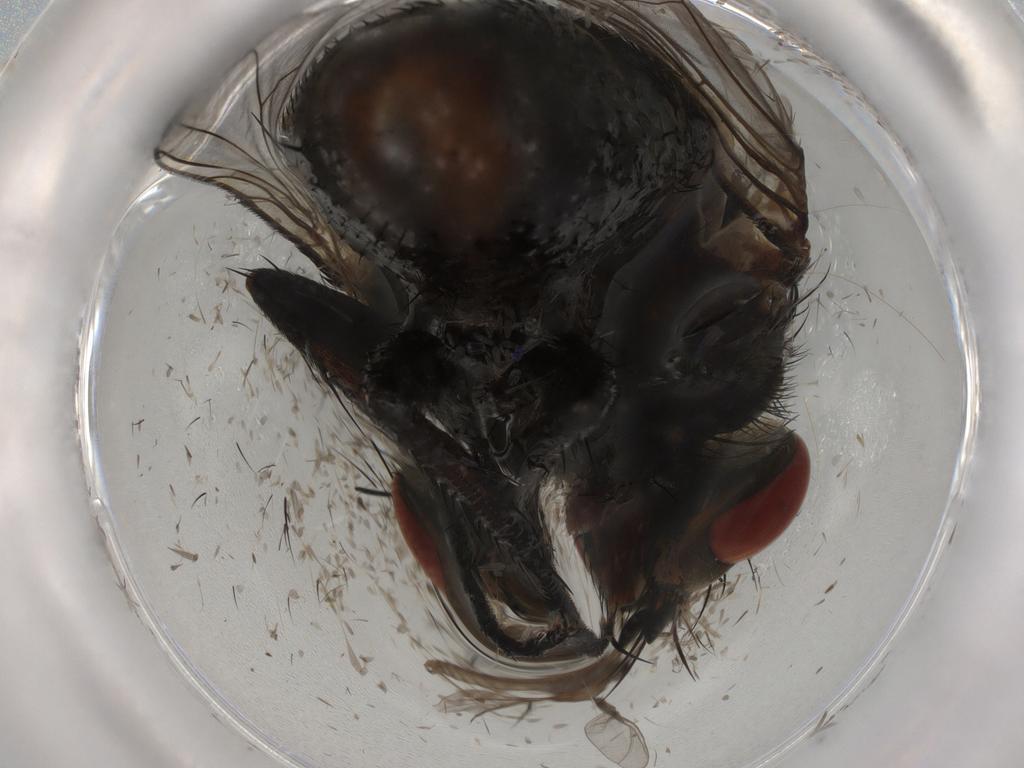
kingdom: Animalia
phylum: Arthropoda
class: Insecta
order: Diptera
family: Tachinidae
